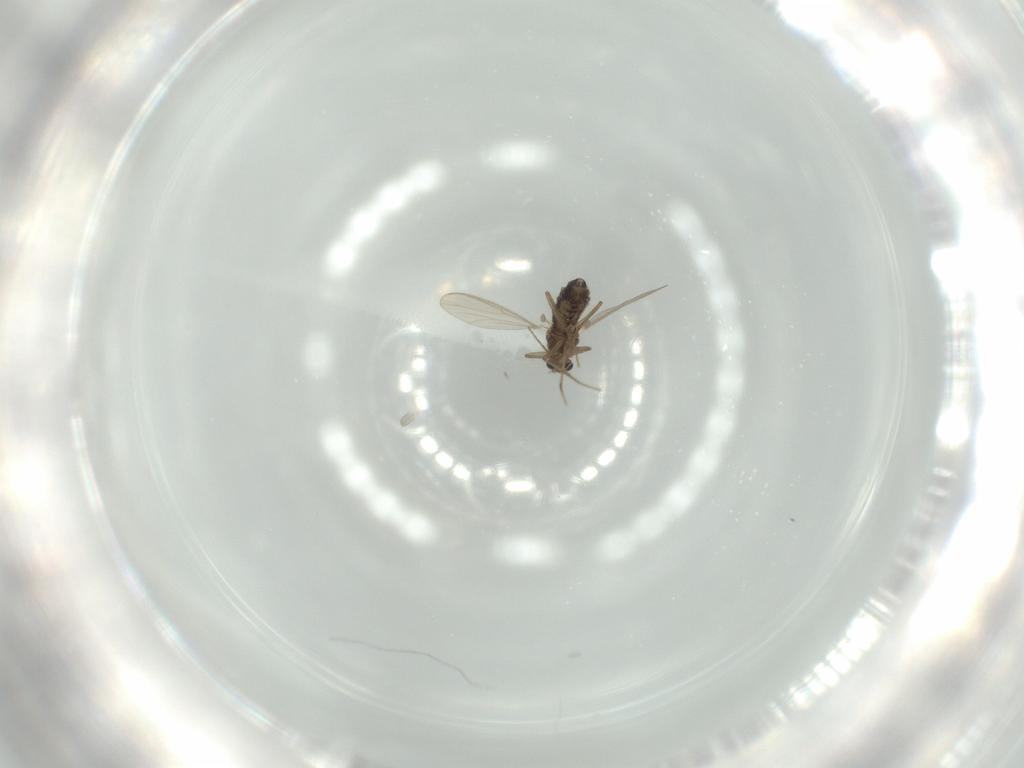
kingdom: Animalia
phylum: Arthropoda
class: Insecta
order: Diptera
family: Chironomidae
